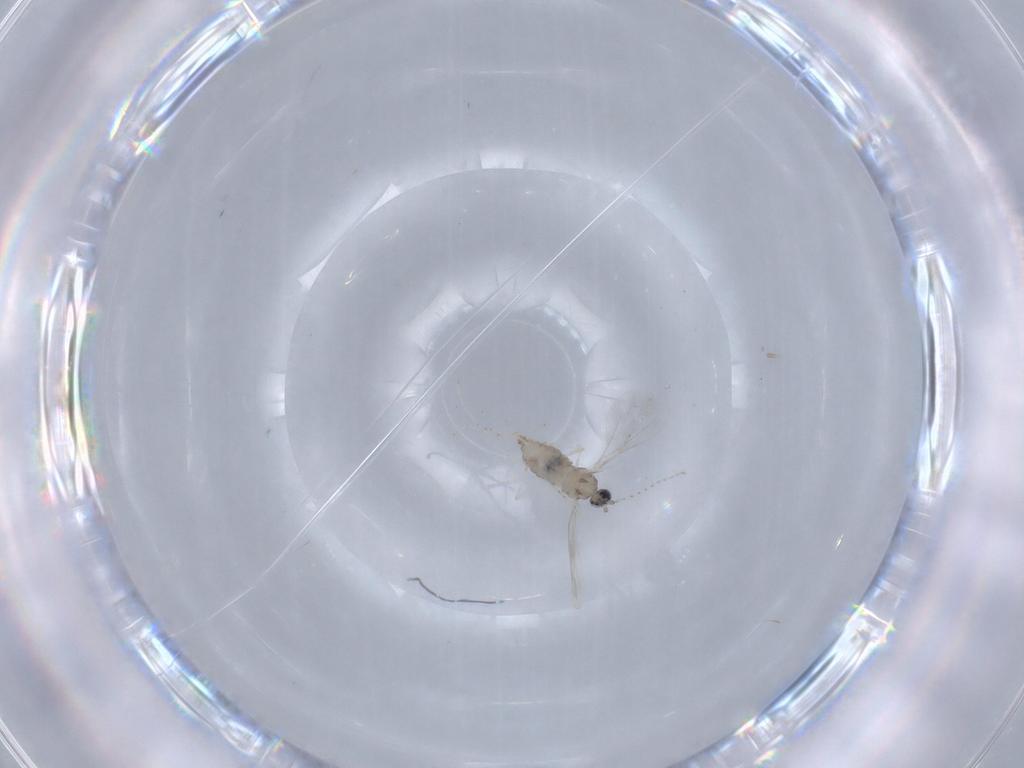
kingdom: Animalia
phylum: Arthropoda
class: Insecta
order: Diptera
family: Cecidomyiidae
